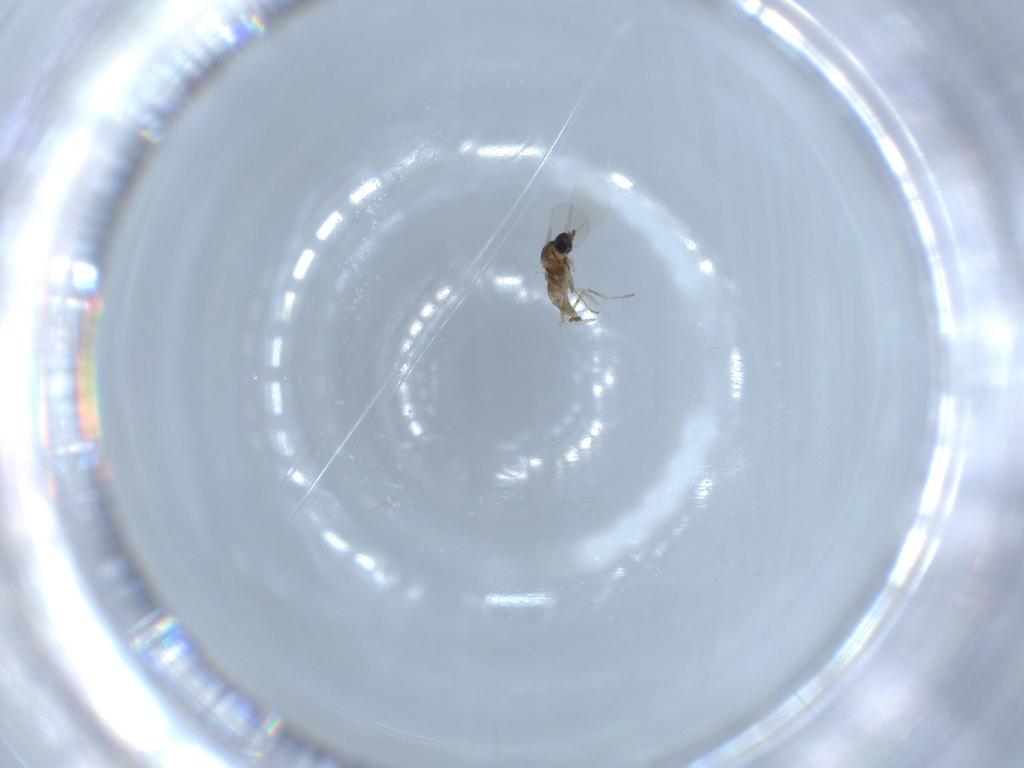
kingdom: Animalia
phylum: Arthropoda
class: Insecta
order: Diptera
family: Cecidomyiidae
